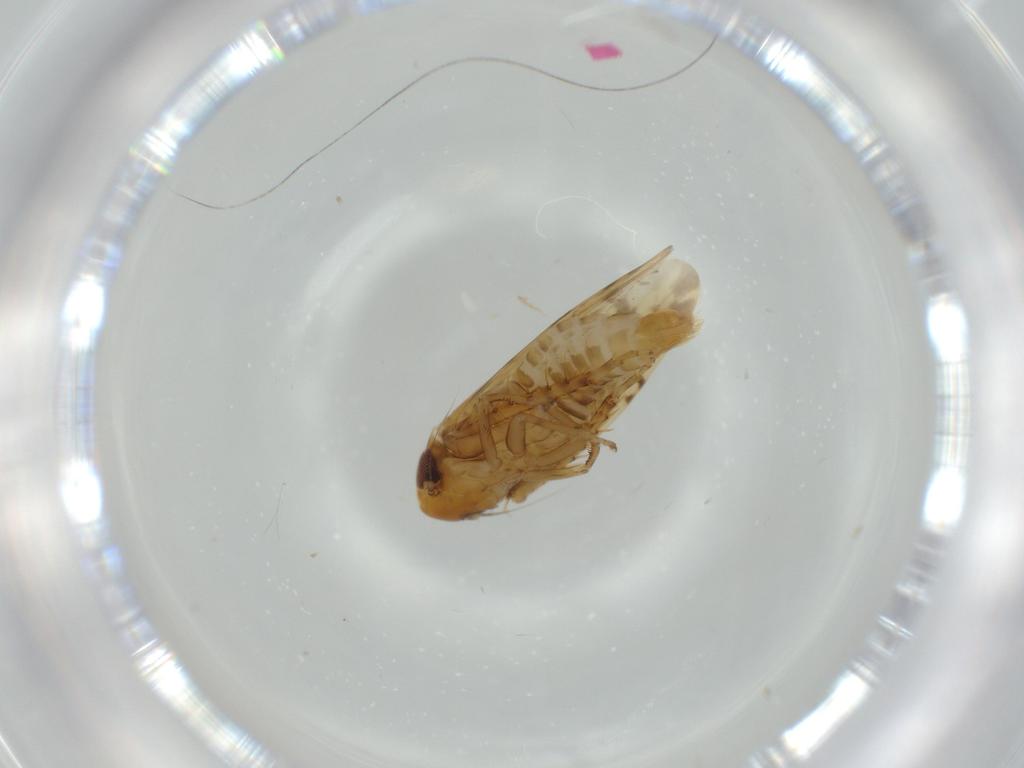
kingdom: Animalia
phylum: Arthropoda
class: Insecta
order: Hemiptera
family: Cicadellidae
